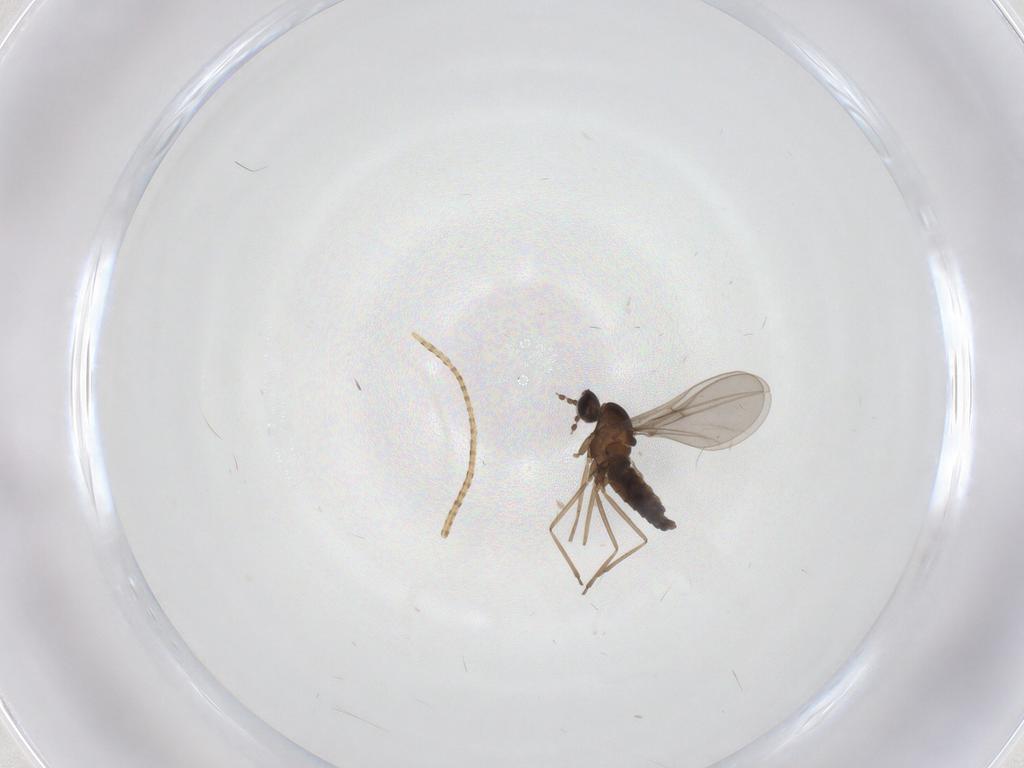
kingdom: Animalia
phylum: Arthropoda
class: Insecta
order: Diptera
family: Cecidomyiidae
